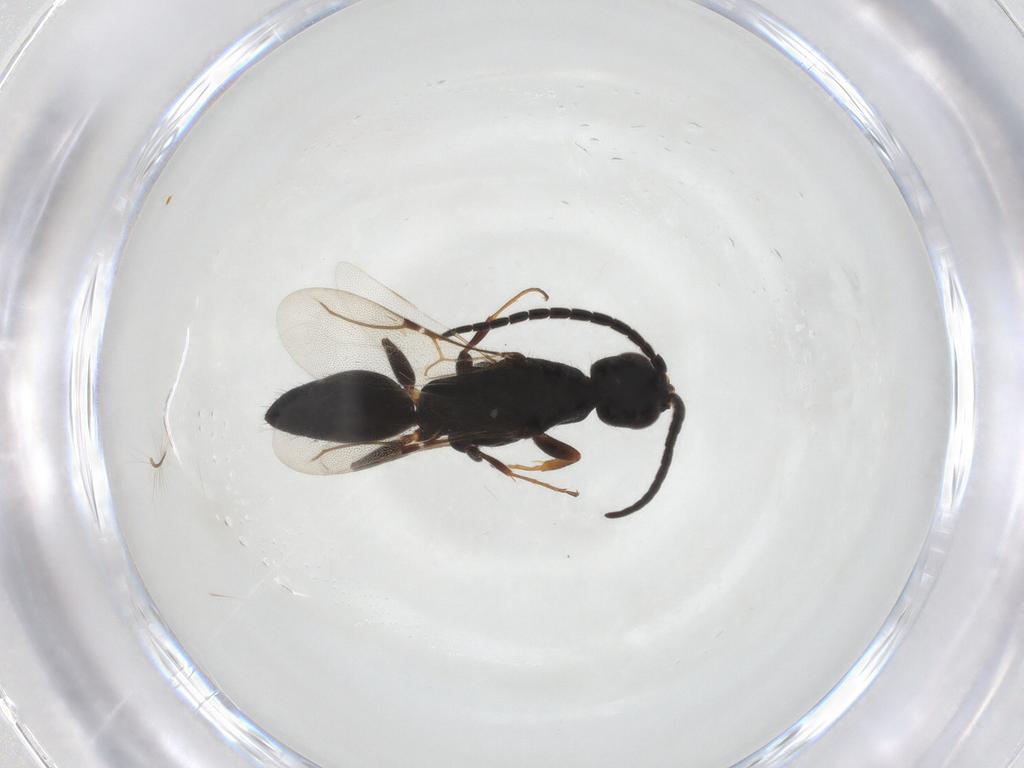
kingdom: Animalia
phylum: Arthropoda
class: Insecta
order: Hymenoptera
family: Bethylidae
